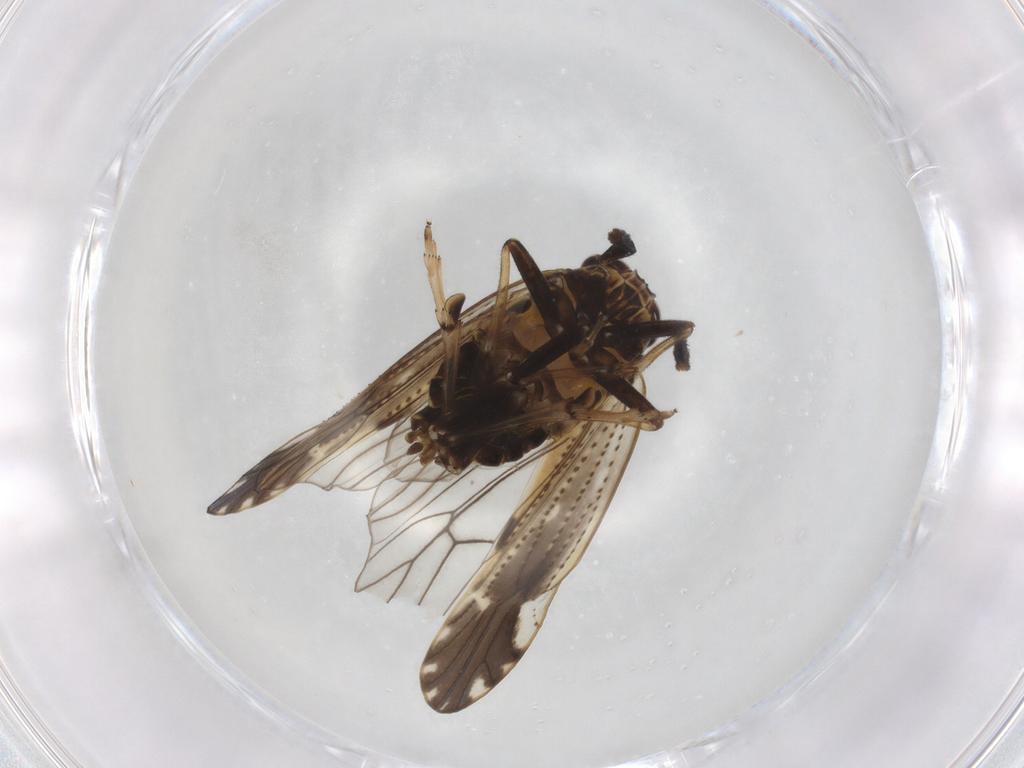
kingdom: Animalia
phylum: Arthropoda
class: Insecta
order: Hemiptera
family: Delphacidae
